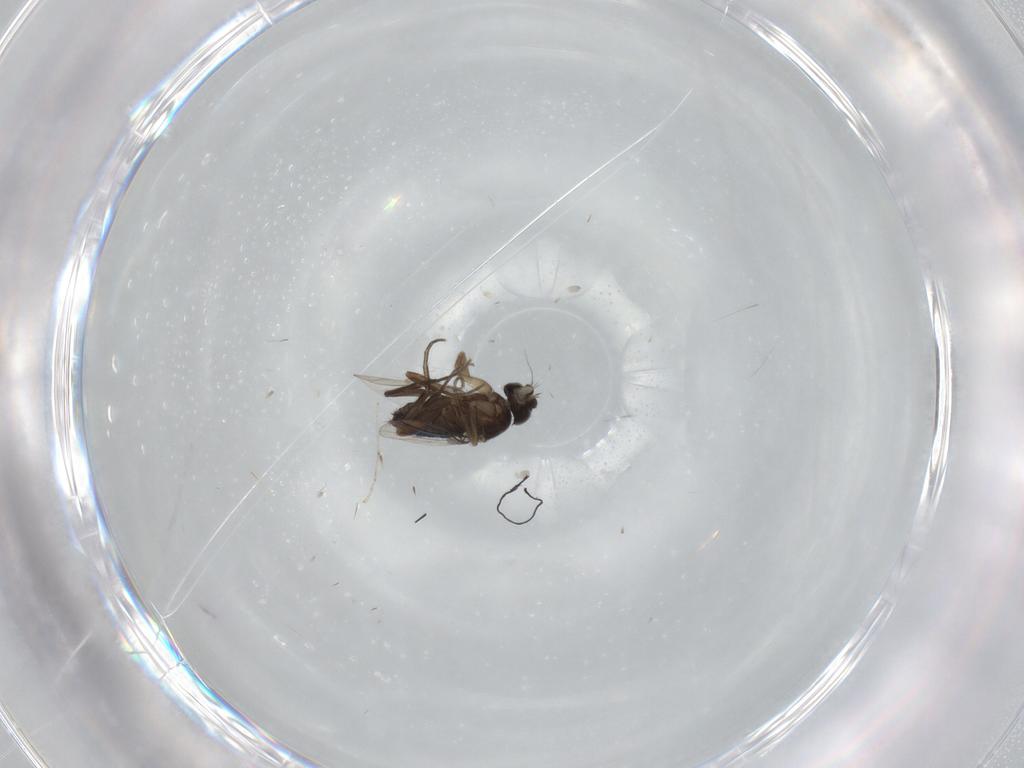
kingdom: Animalia
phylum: Arthropoda
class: Insecta
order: Diptera
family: Phoridae
